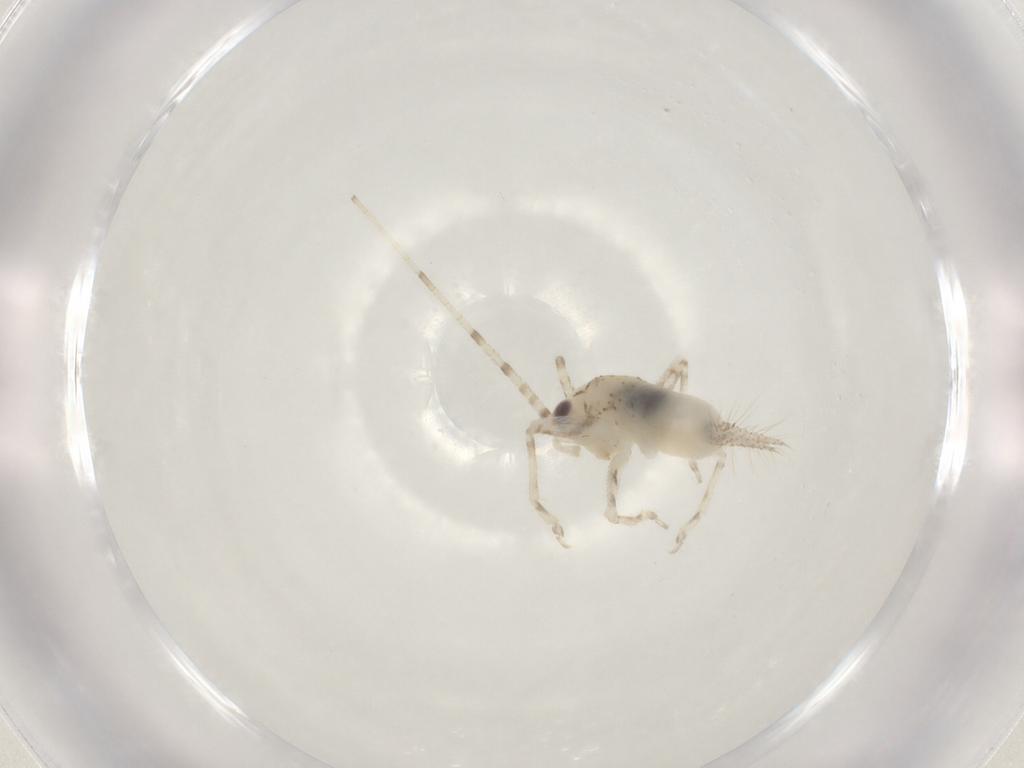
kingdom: Animalia
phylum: Arthropoda
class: Insecta
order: Orthoptera
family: Trigonidiidae
